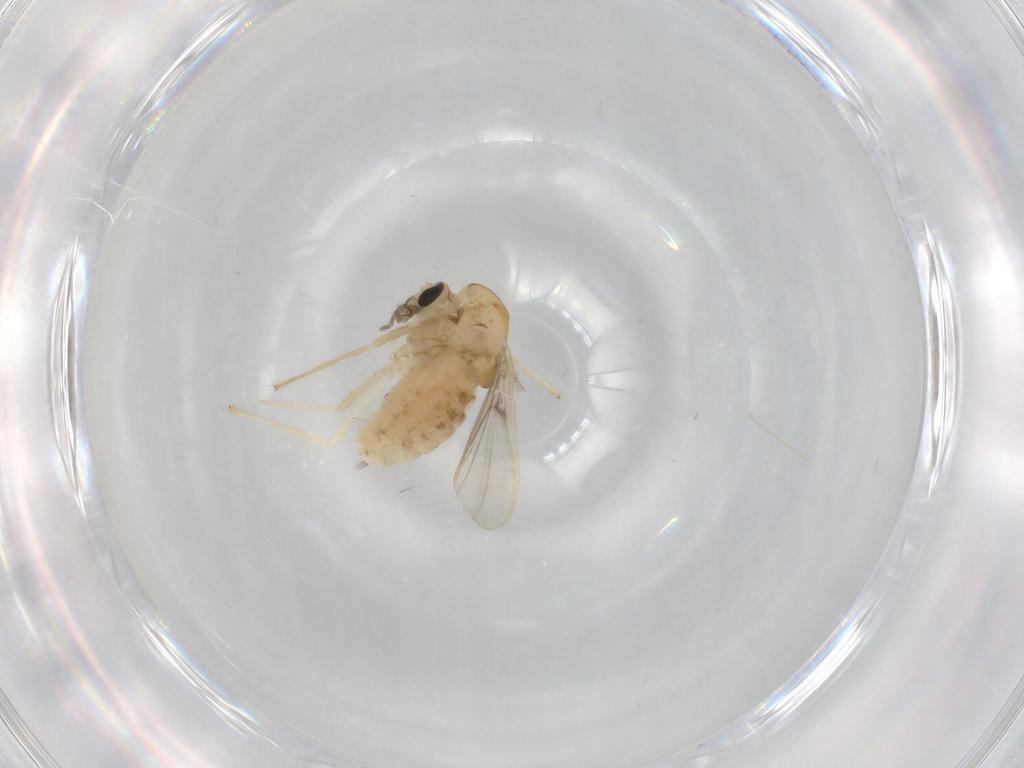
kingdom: Animalia
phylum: Arthropoda
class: Insecta
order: Diptera
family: Chironomidae
